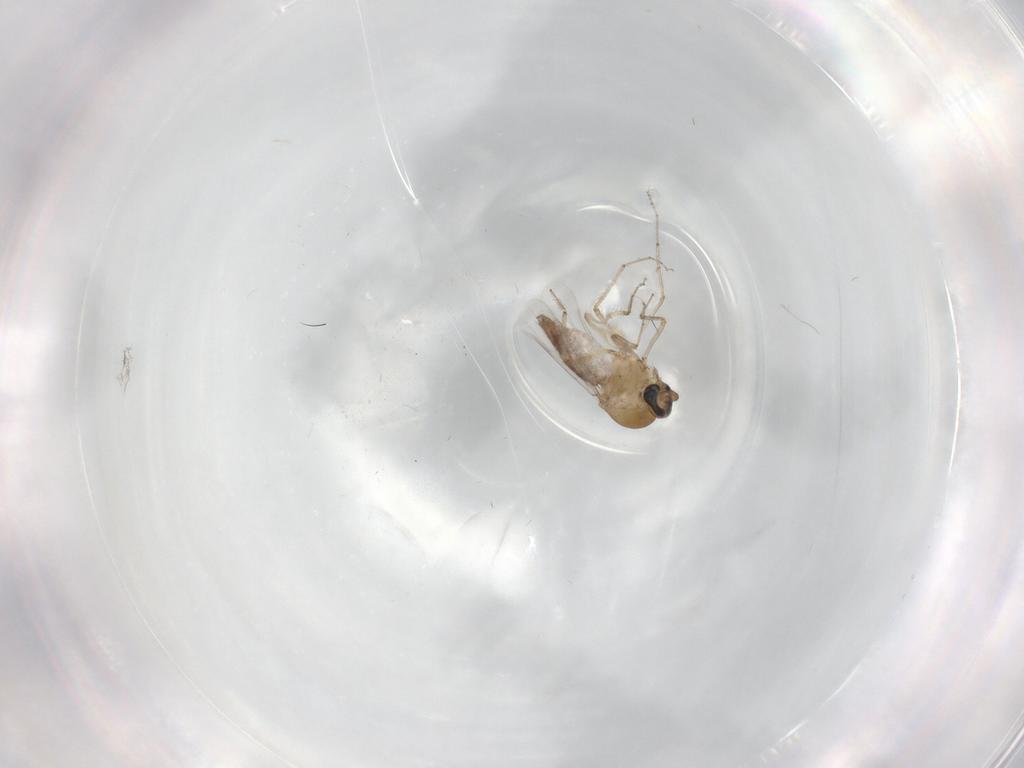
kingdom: Animalia
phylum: Arthropoda
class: Insecta
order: Diptera
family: Ceratopogonidae
